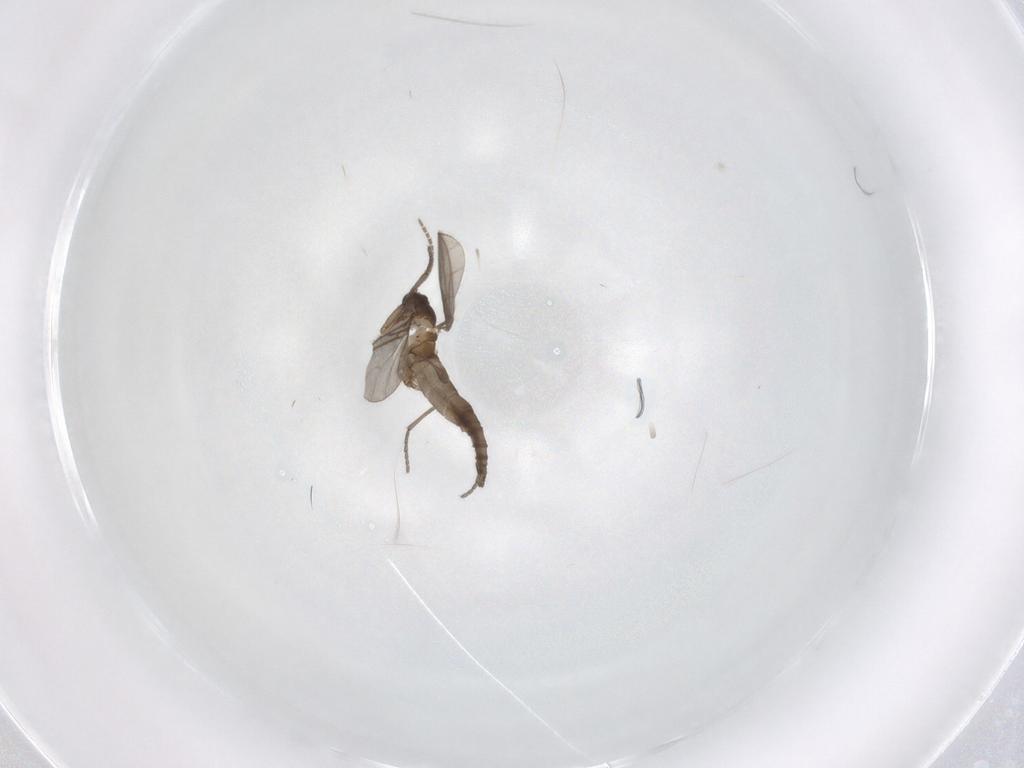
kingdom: Animalia
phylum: Arthropoda
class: Insecta
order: Diptera
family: Sciaridae
